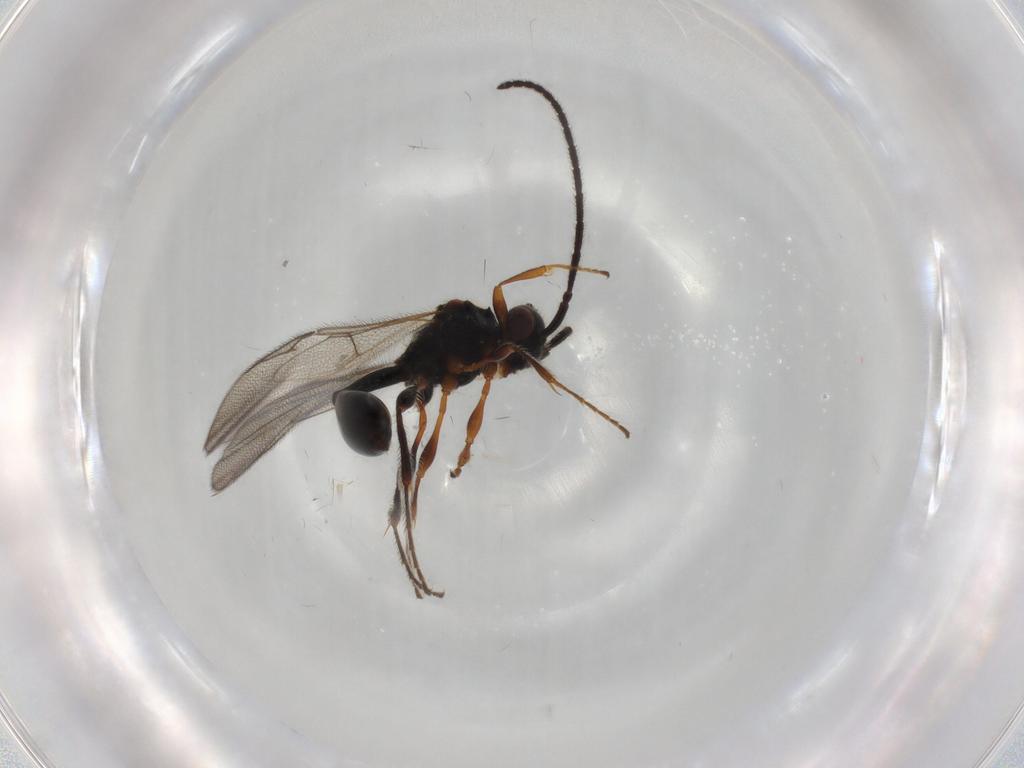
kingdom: Animalia
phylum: Arthropoda
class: Insecta
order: Hymenoptera
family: Diapriidae
